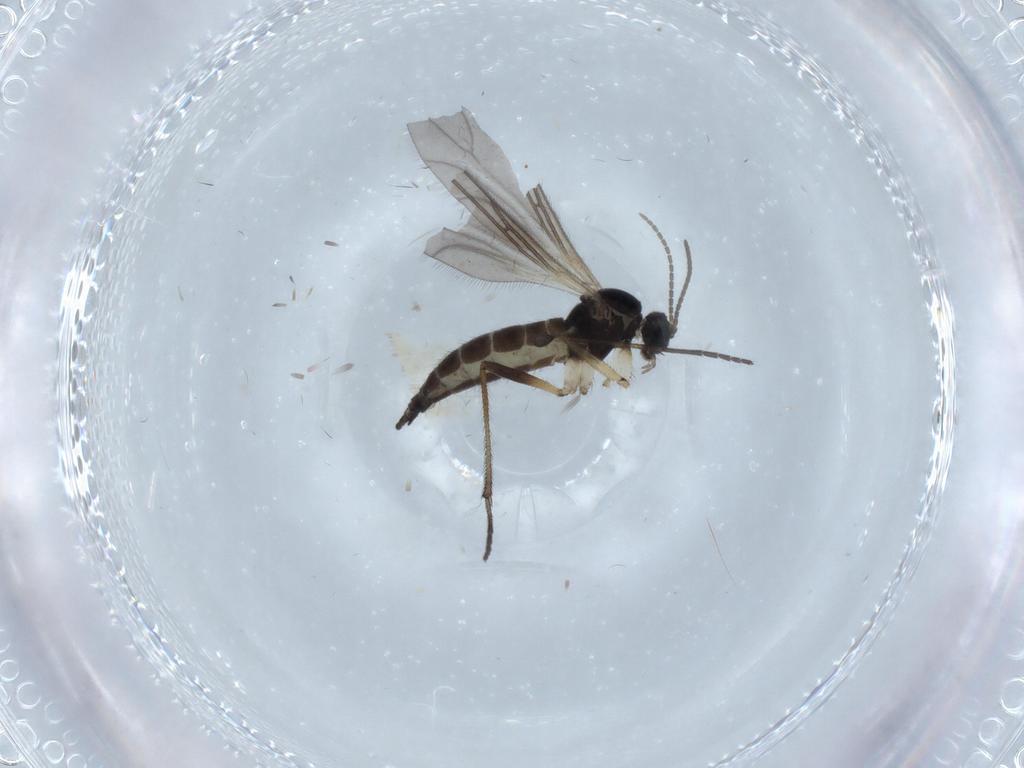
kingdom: Animalia
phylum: Arthropoda
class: Insecta
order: Diptera
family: Sciaridae
